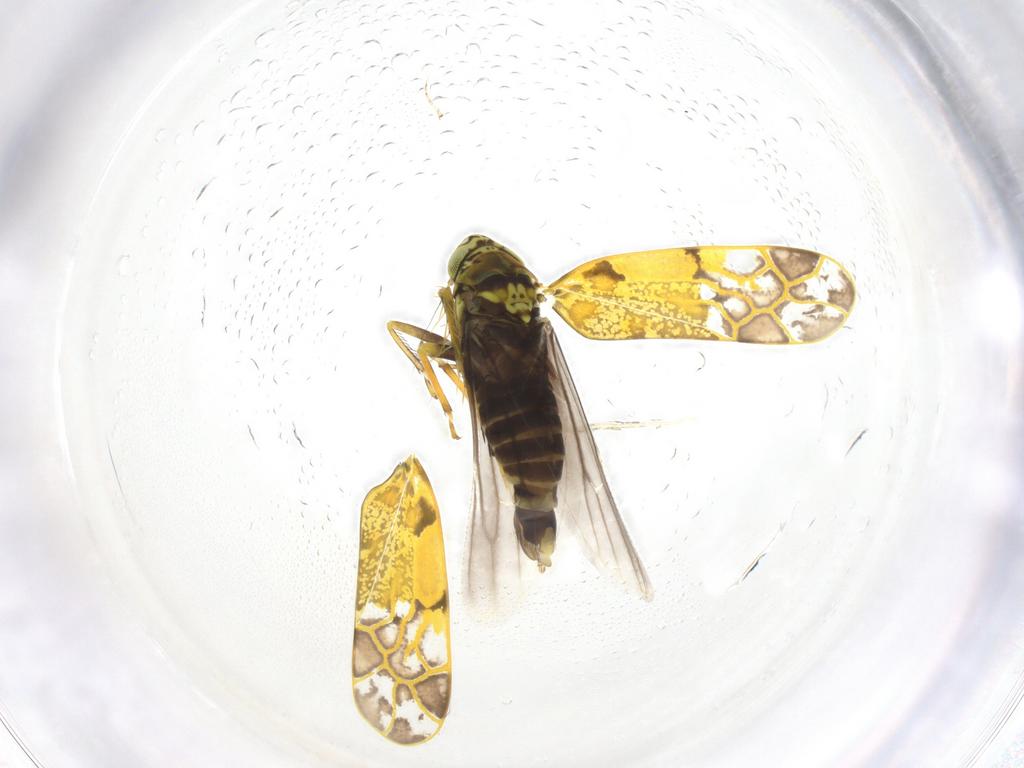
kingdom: Animalia
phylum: Arthropoda
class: Insecta
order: Hemiptera
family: Cicadellidae
